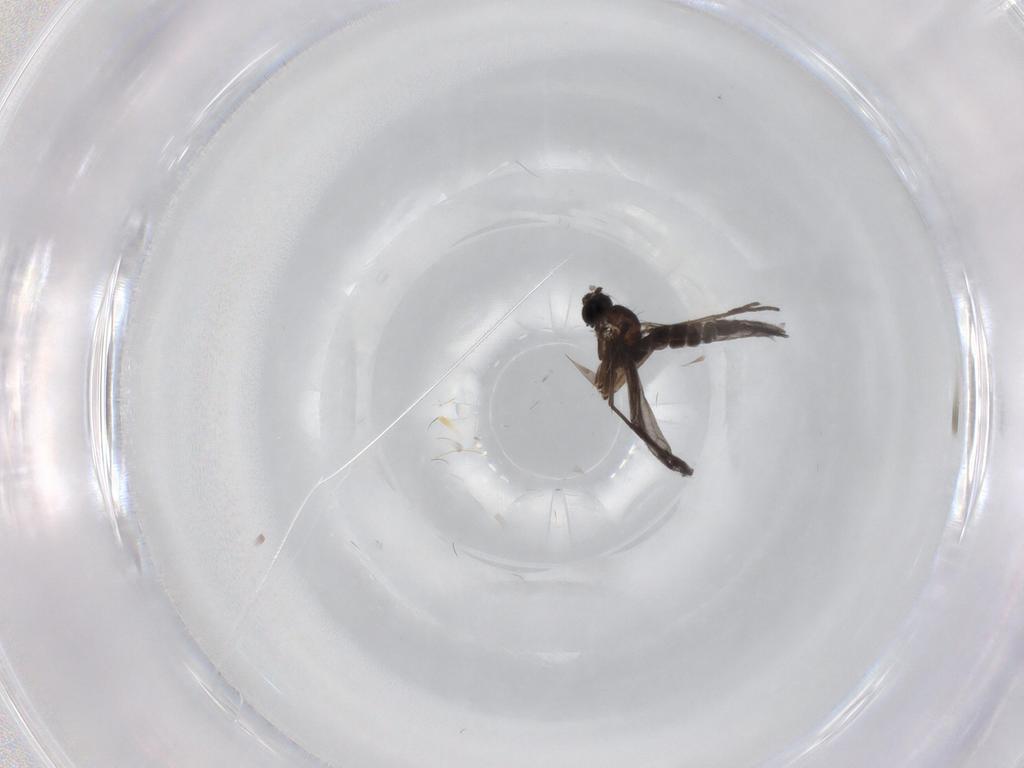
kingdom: Animalia
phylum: Arthropoda
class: Insecta
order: Diptera
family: Sciaridae
